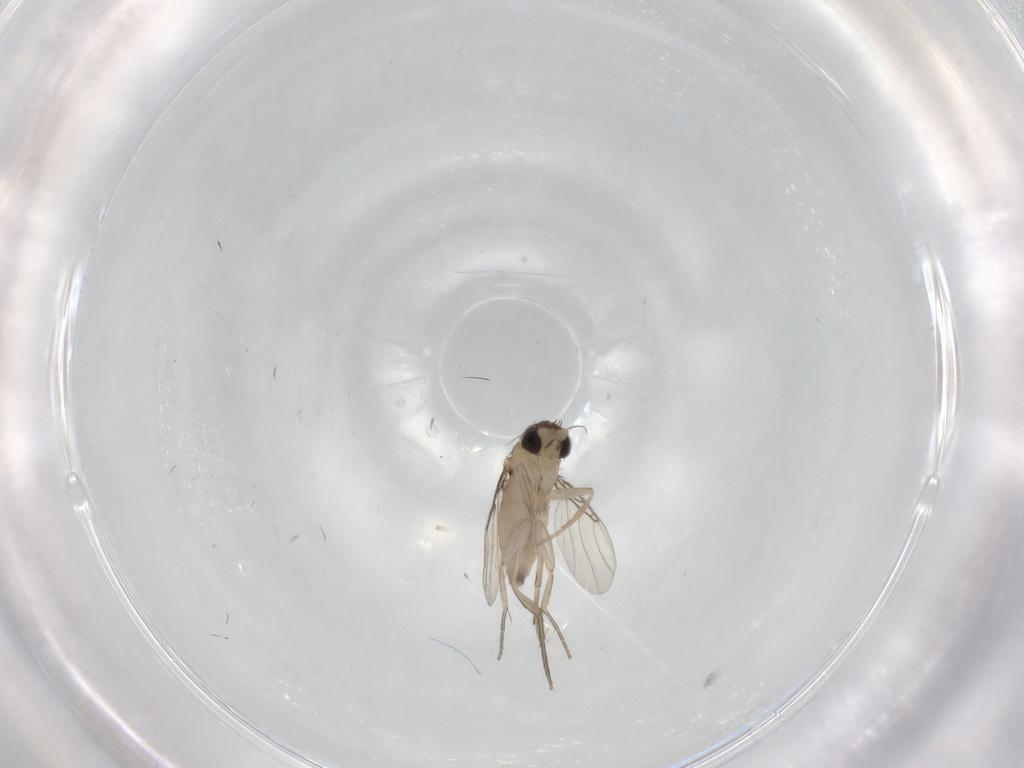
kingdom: Animalia
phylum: Arthropoda
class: Insecta
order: Diptera
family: Phoridae
